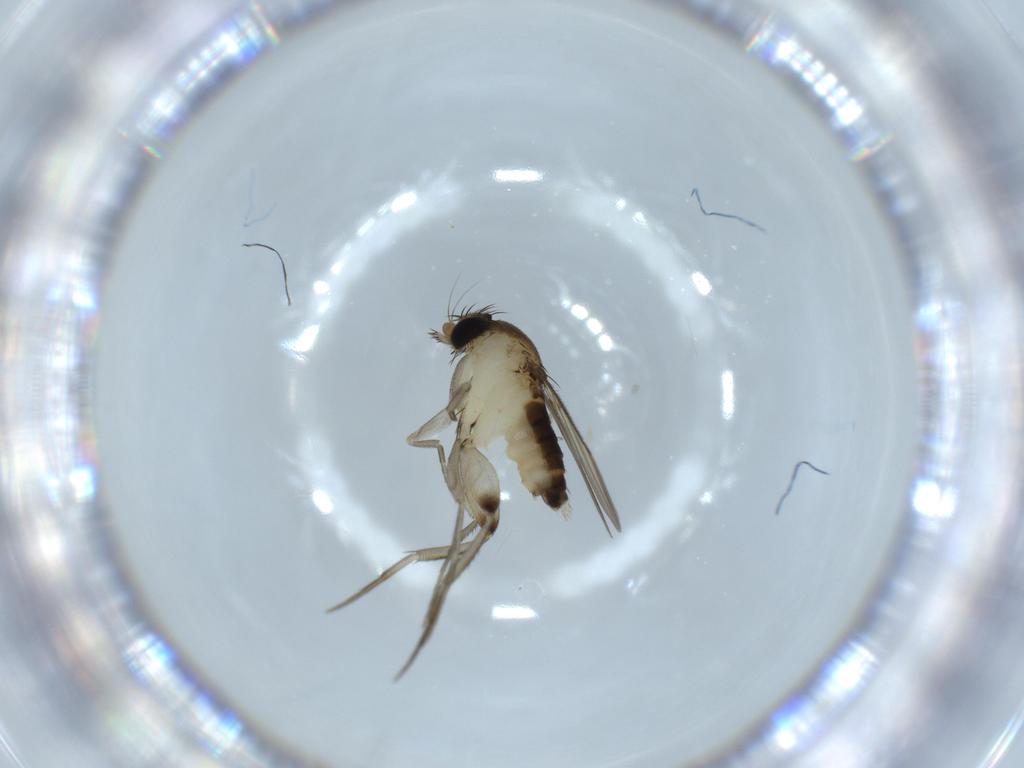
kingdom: Animalia
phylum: Arthropoda
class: Insecta
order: Diptera
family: Phoridae
